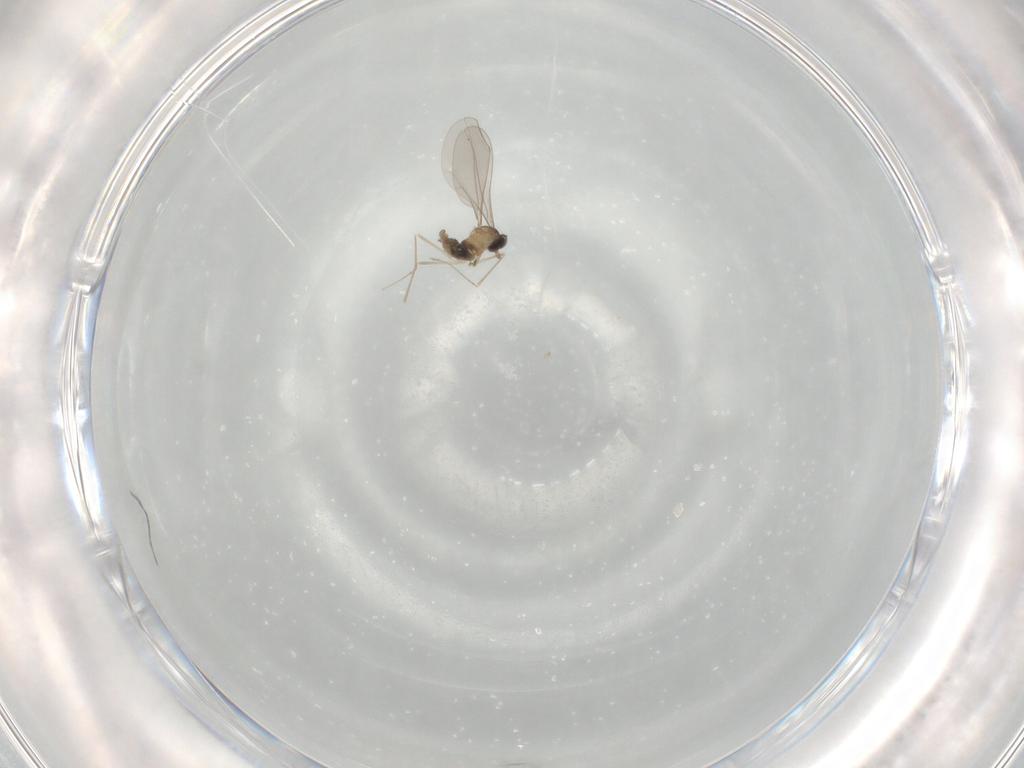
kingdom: Animalia
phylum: Arthropoda
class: Insecta
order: Diptera
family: Cecidomyiidae
